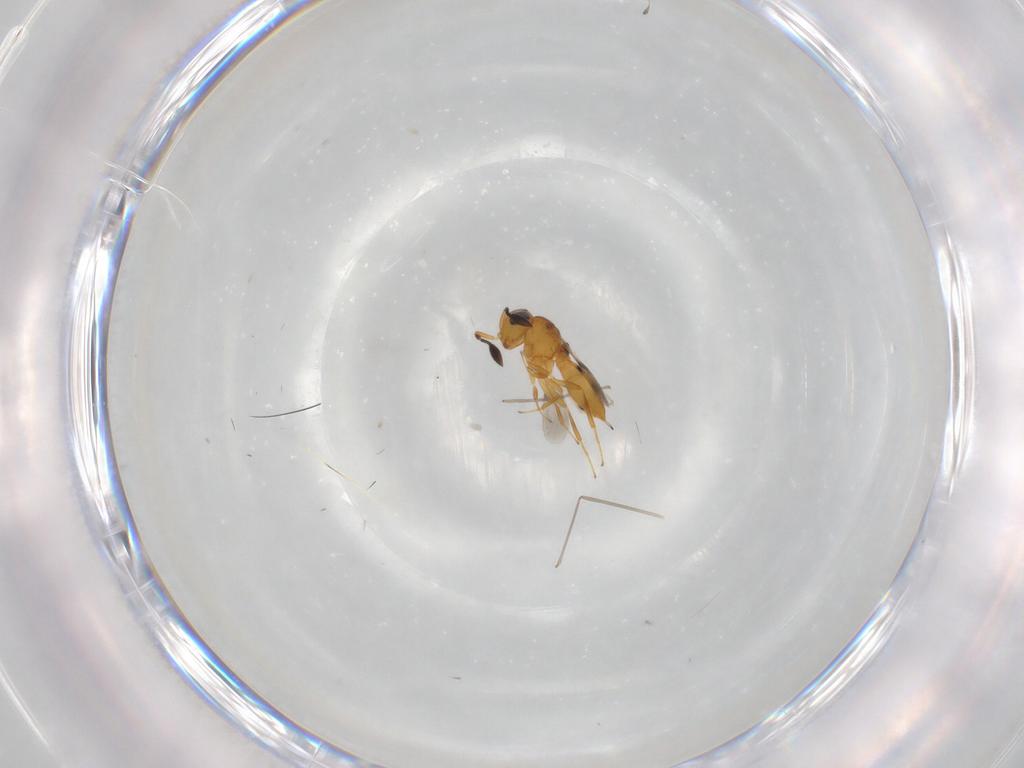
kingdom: Animalia
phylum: Arthropoda
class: Insecta
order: Hymenoptera
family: Scelionidae
